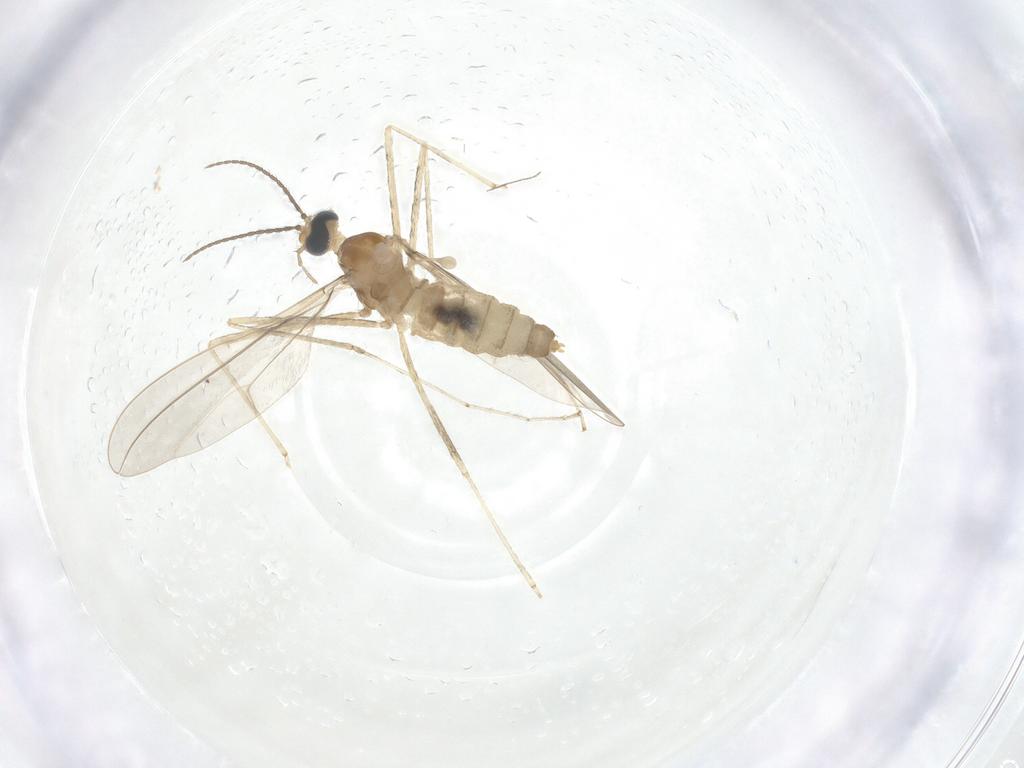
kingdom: Animalia
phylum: Arthropoda
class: Insecta
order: Diptera
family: Cecidomyiidae
